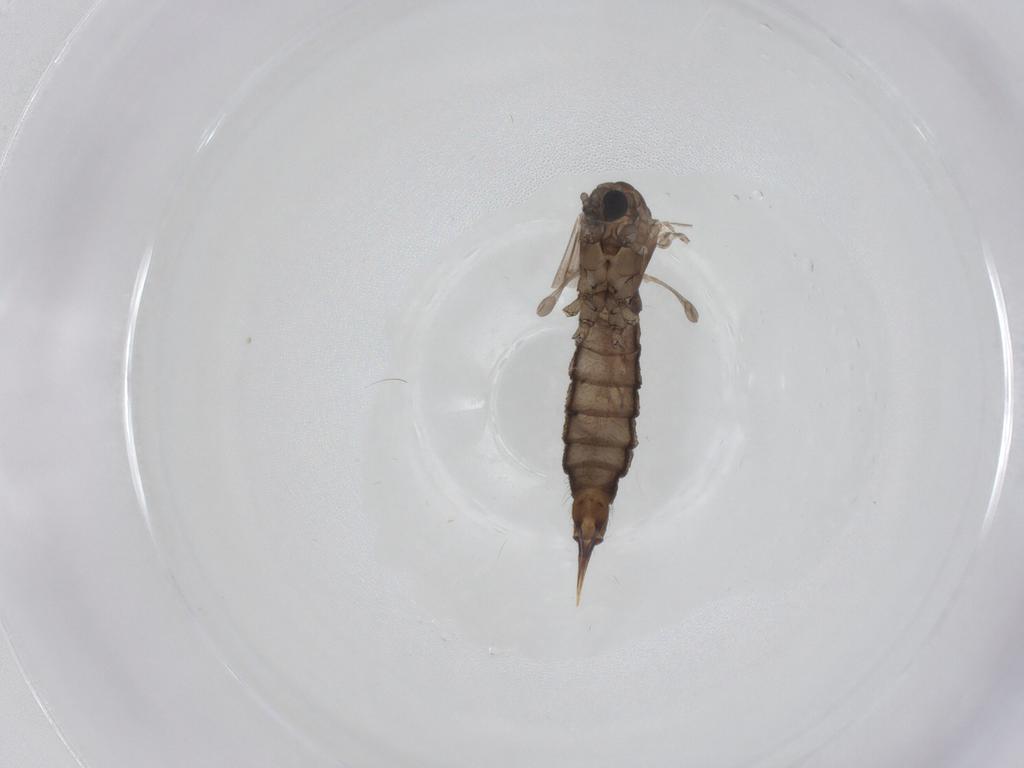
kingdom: Animalia
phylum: Arthropoda
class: Insecta
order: Diptera
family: Limoniidae
